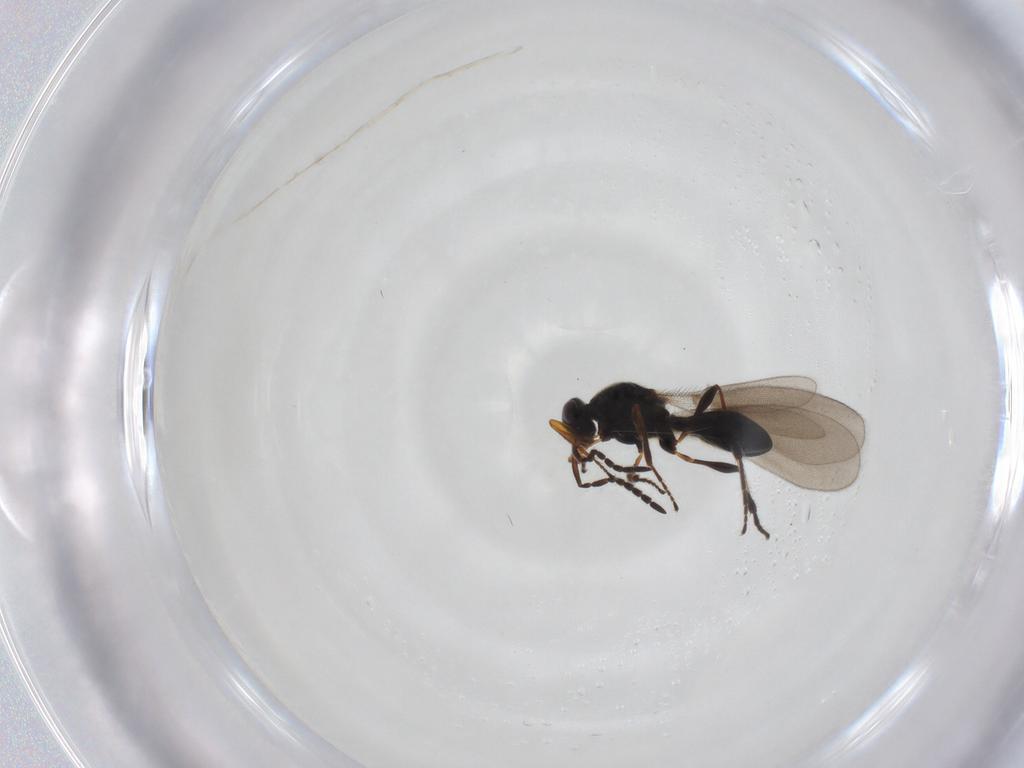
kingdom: Animalia
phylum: Arthropoda
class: Insecta
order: Hymenoptera
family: Platygastridae
